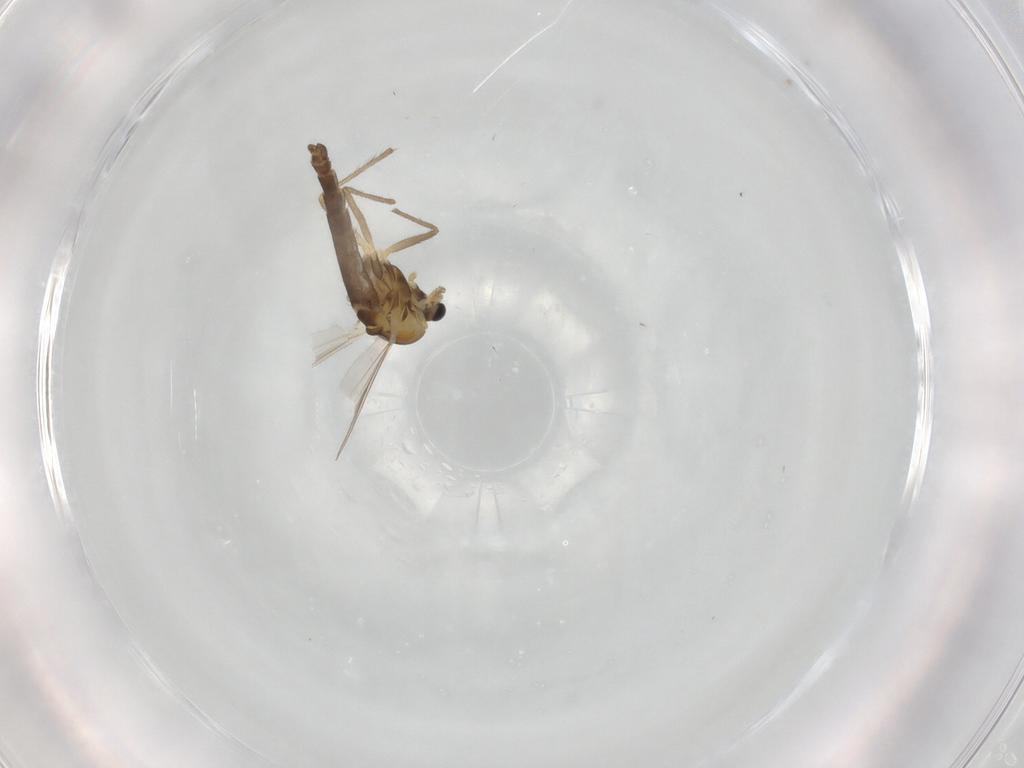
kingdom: Animalia
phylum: Arthropoda
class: Insecta
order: Diptera
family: Chironomidae
